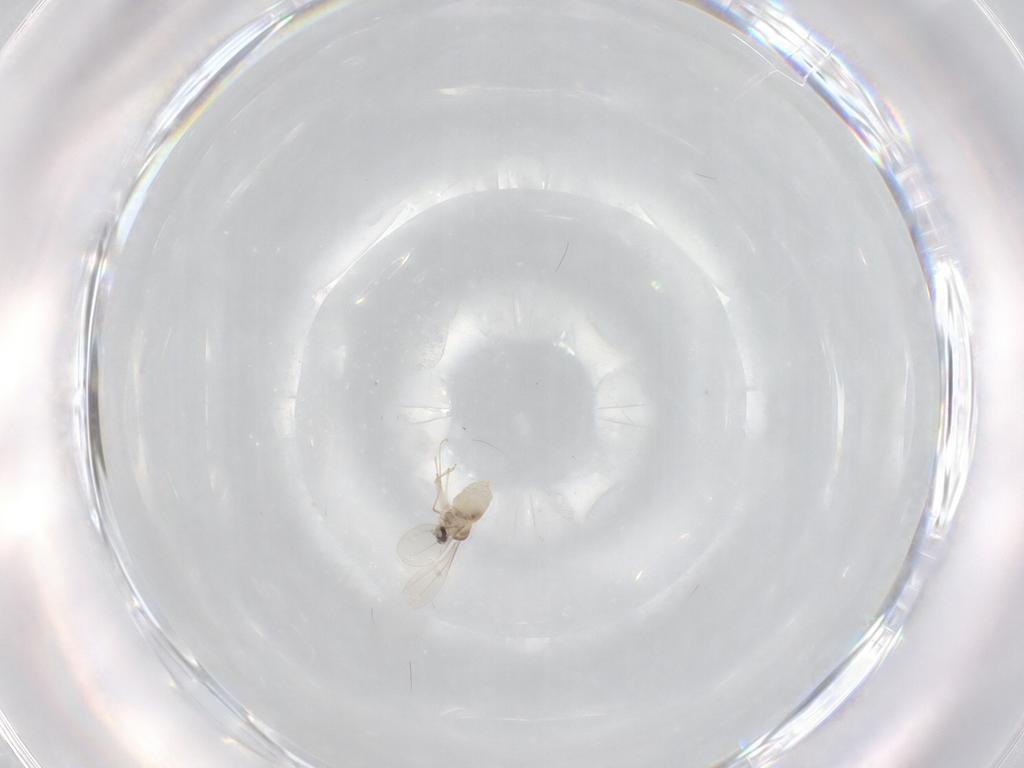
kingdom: Animalia
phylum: Arthropoda
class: Insecta
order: Diptera
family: Cecidomyiidae
